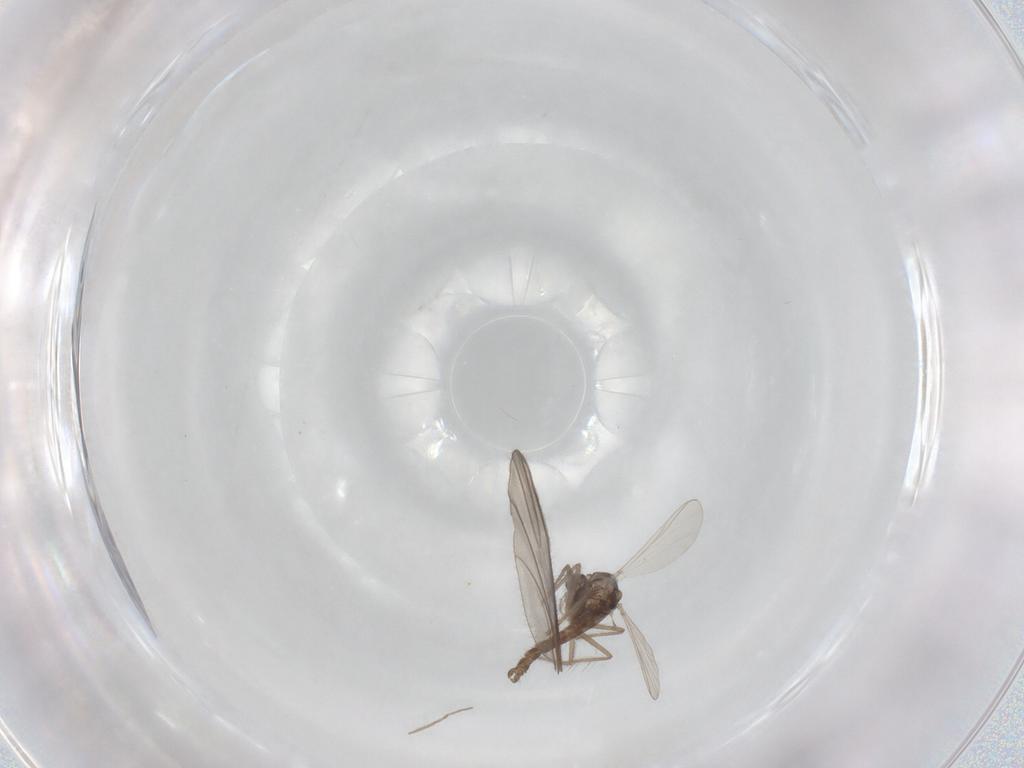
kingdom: Animalia
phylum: Arthropoda
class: Insecta
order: Diptera
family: Chironomidae
